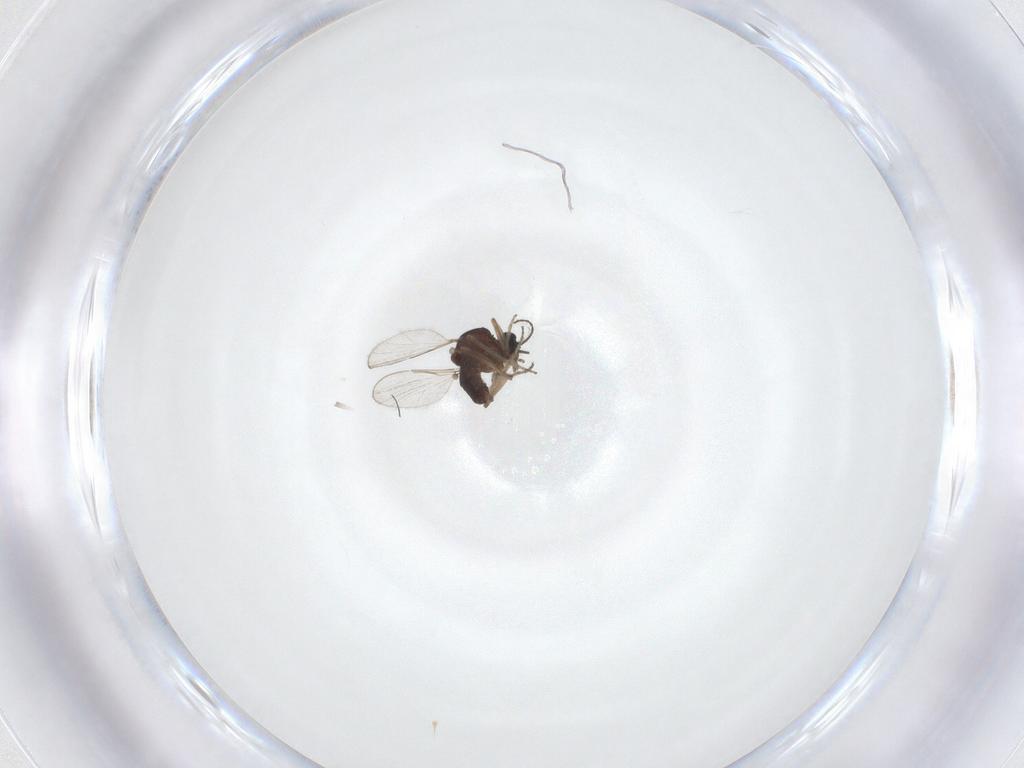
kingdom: Animalia
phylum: Arthropoda
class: Insecta
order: Diptera
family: Ceratopogonidae
